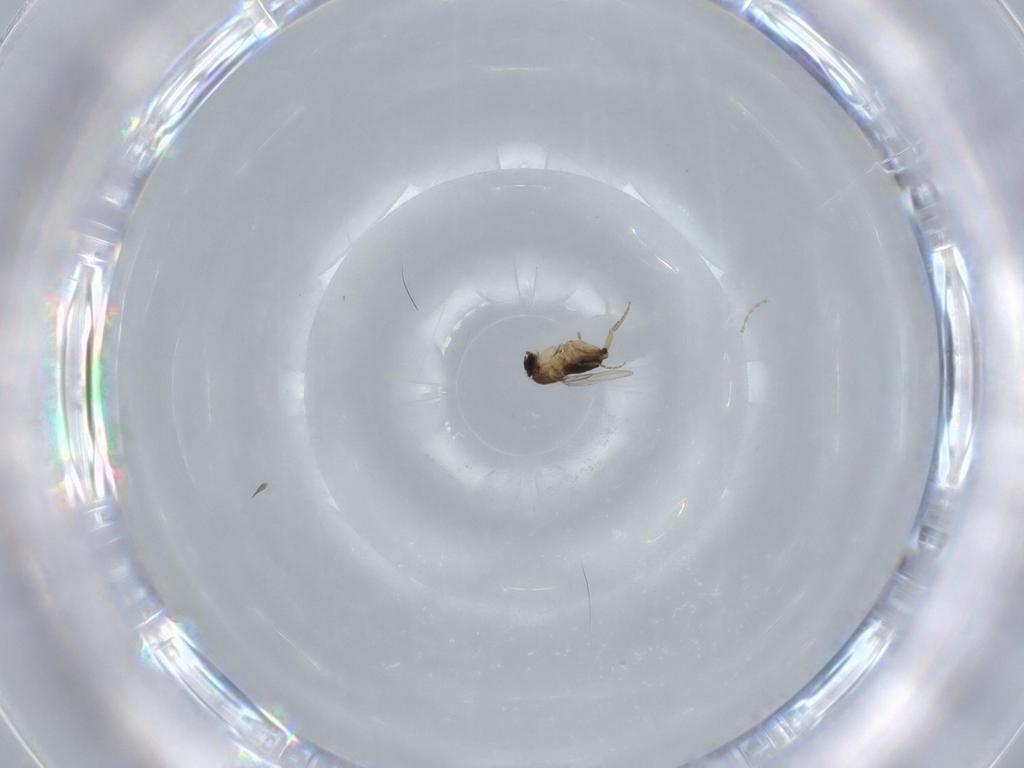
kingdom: Animalia
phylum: Arthropoda
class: Insecta
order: Diptera
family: Phoridae
